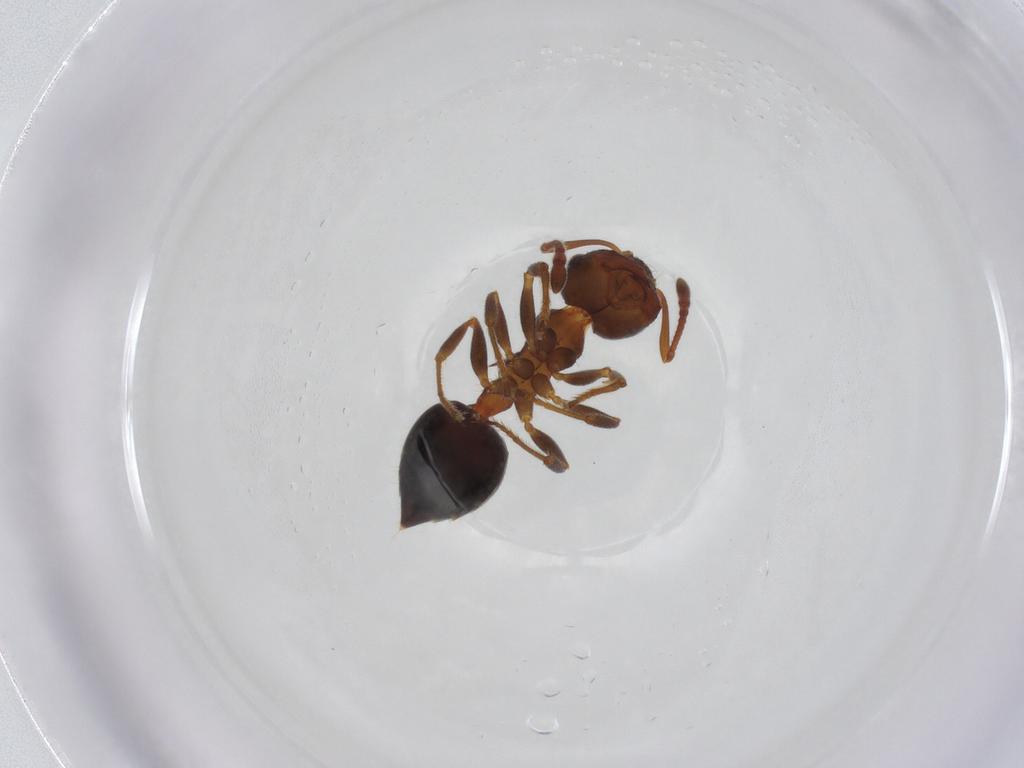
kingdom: Animalia
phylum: Arthropoda
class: Insecta
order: Hymenoptera
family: Formicidae
